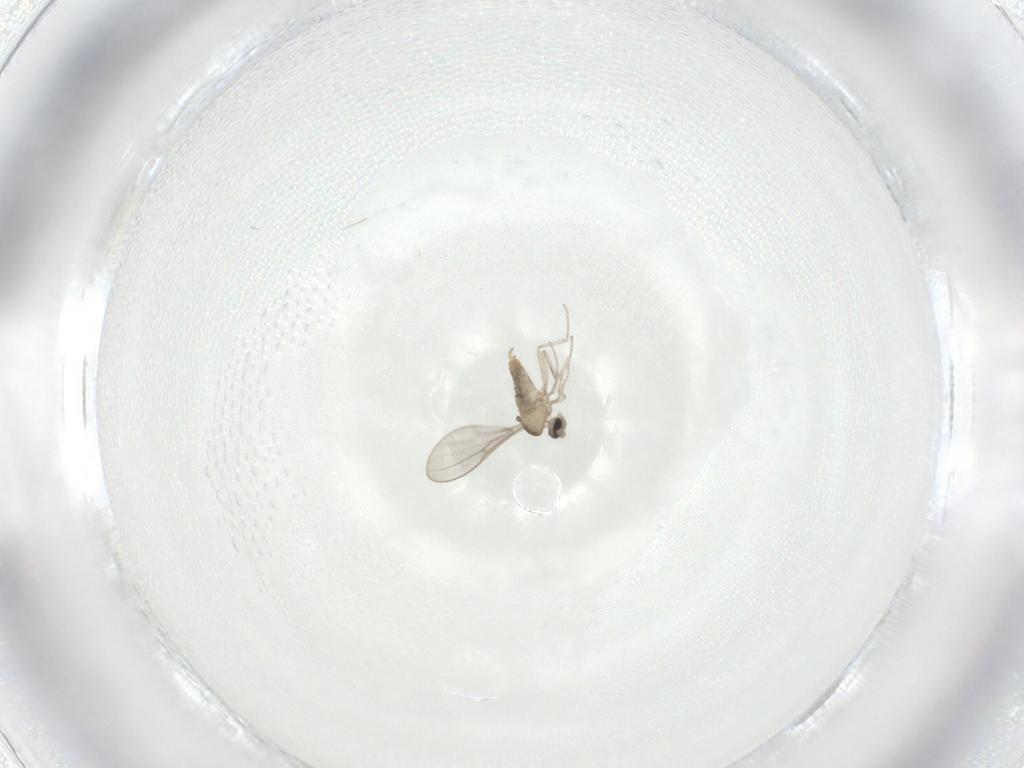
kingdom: Animalia
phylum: Arthropoda
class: Insecta
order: Diptera
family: Cecidomyiidae
